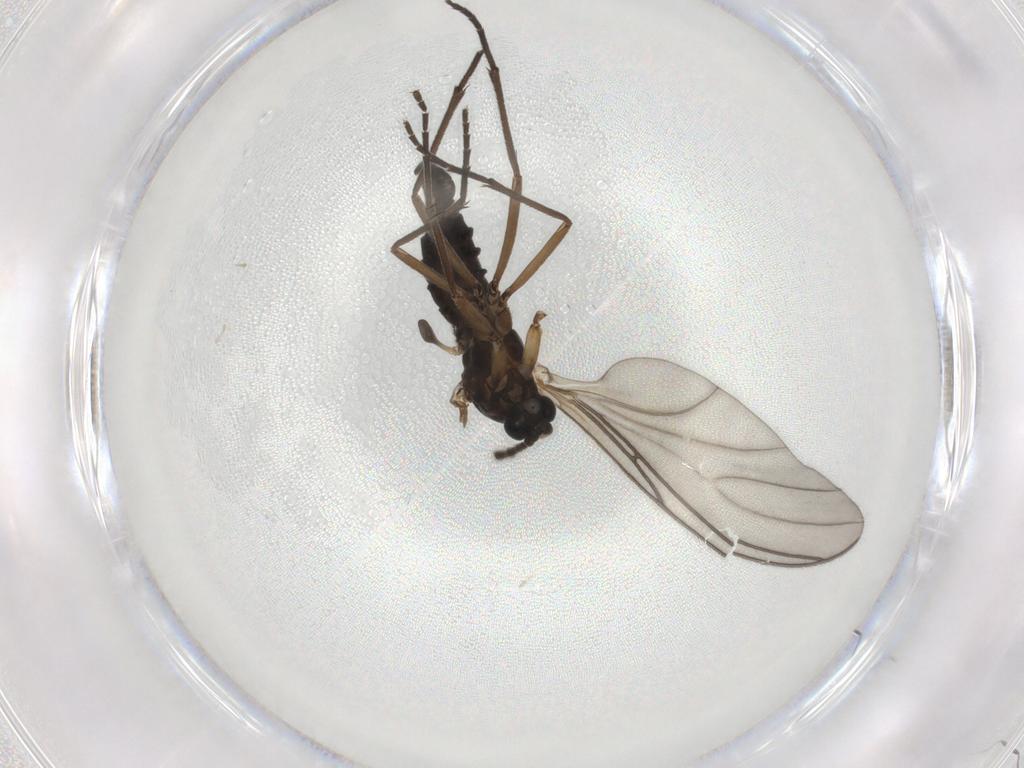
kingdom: Animalia
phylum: Arthropoda
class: Insecta
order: Diptera
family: Sciaridae
